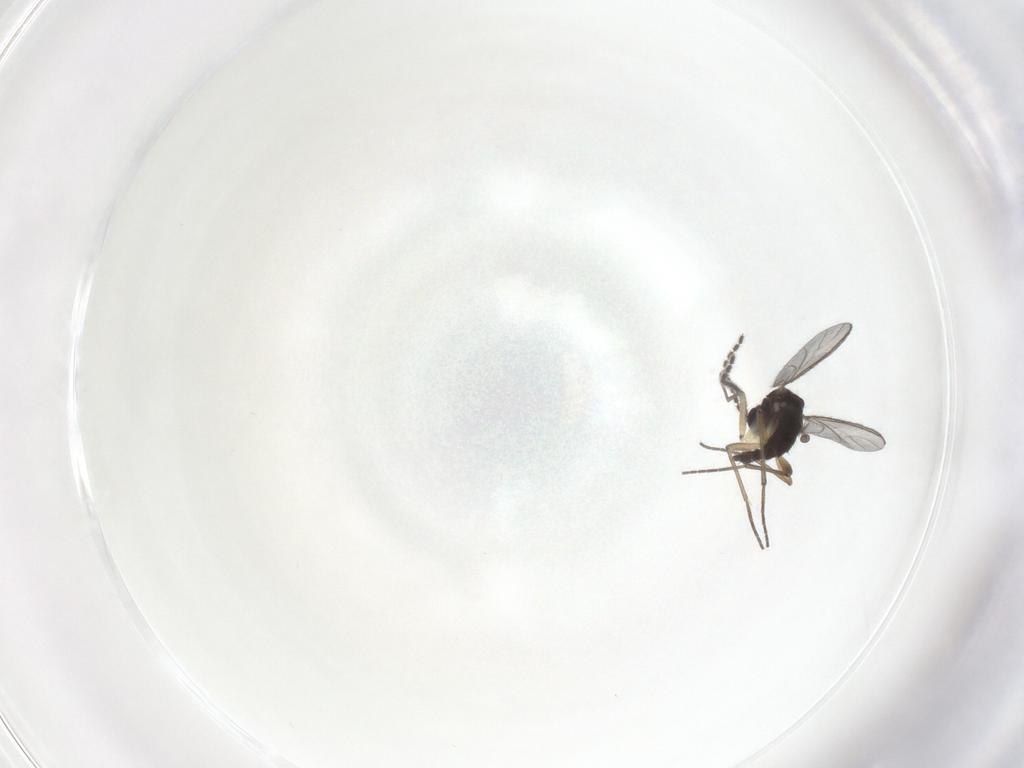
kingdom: Animalia
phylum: Arthropoda
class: Insecta
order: Diptera
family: Sciaridae
